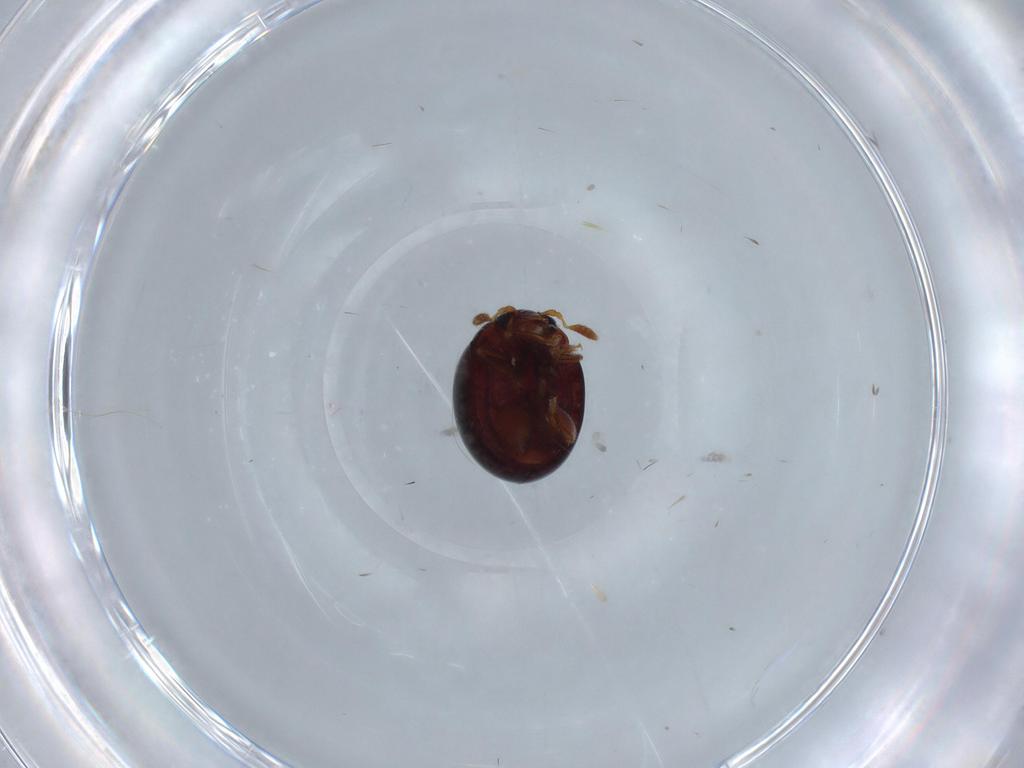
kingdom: Animalia
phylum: Arthropoda
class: Insecta
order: Coleoptera
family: Chrysomelidae
